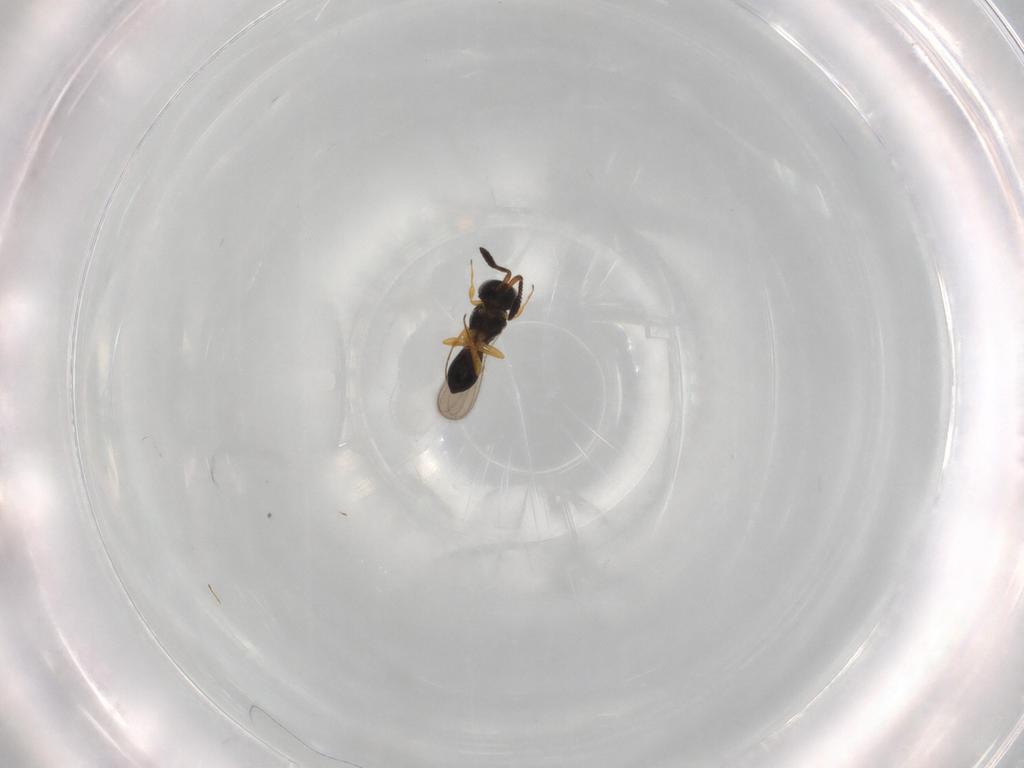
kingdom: Animalia
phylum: Arthropoda
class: Insecta
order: Hymenoptera
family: Scelionidae
